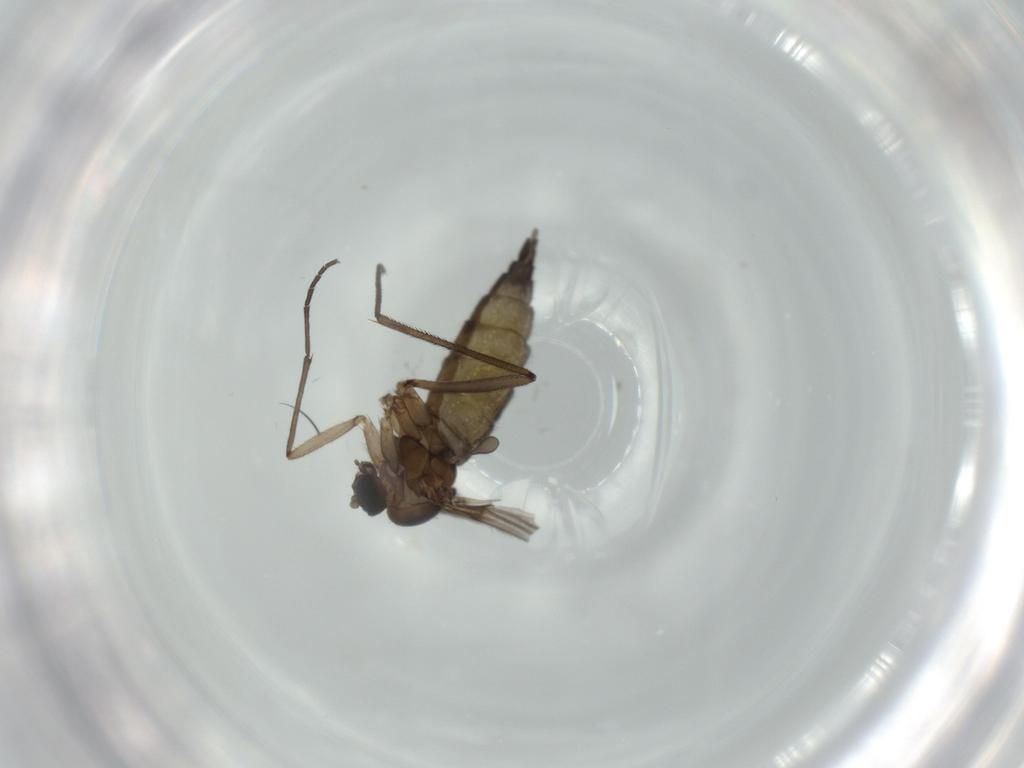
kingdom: Animalia
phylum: Arthropoda
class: Insecta
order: Diptera
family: Sciaridae
